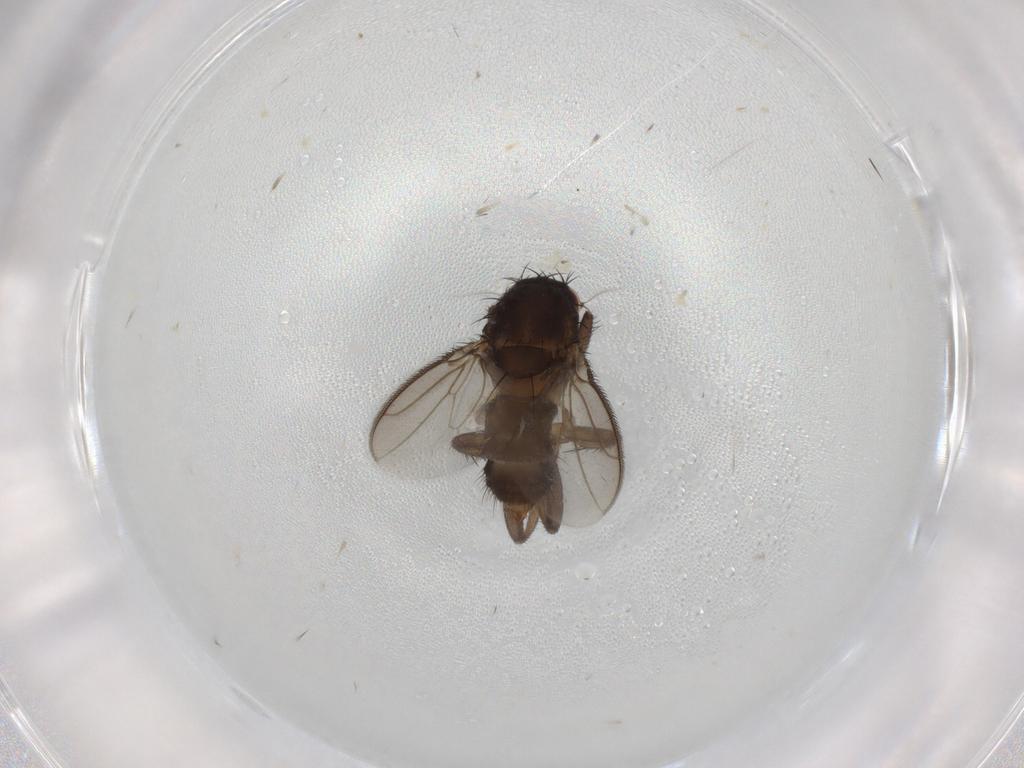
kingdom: Animalia
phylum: Arthropoda
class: Insecta
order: Diptera
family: Sphaeroceridae
